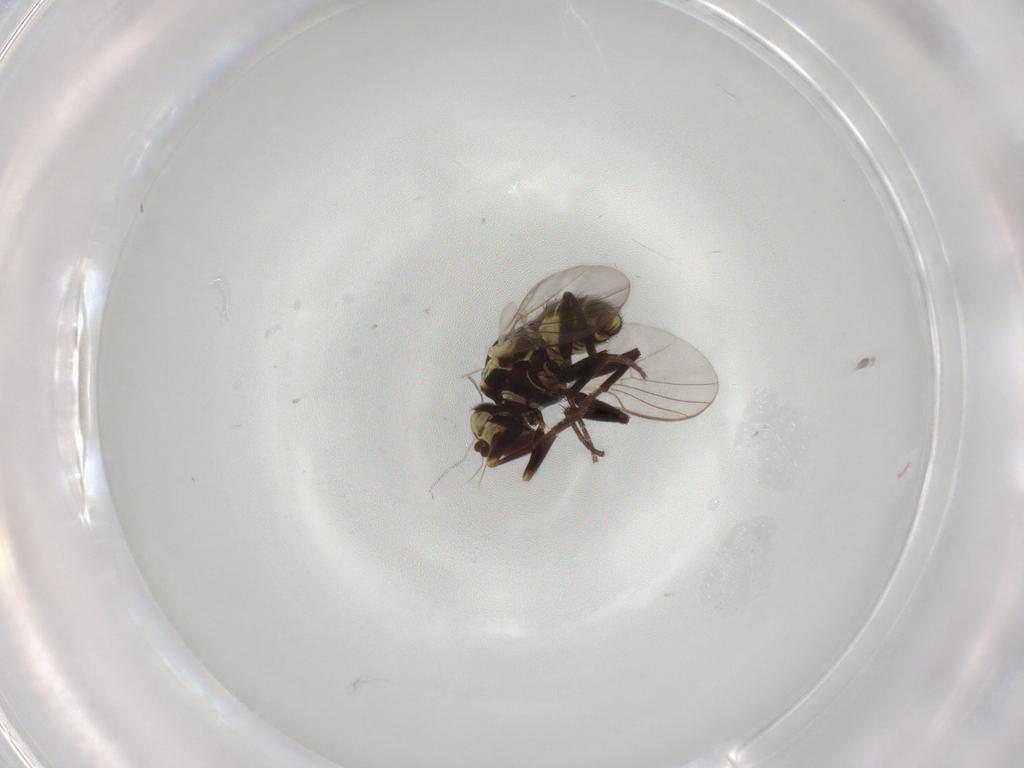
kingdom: Animalia
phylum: Arthropoda
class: Insecta
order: Diptera
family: Agromyzidae
